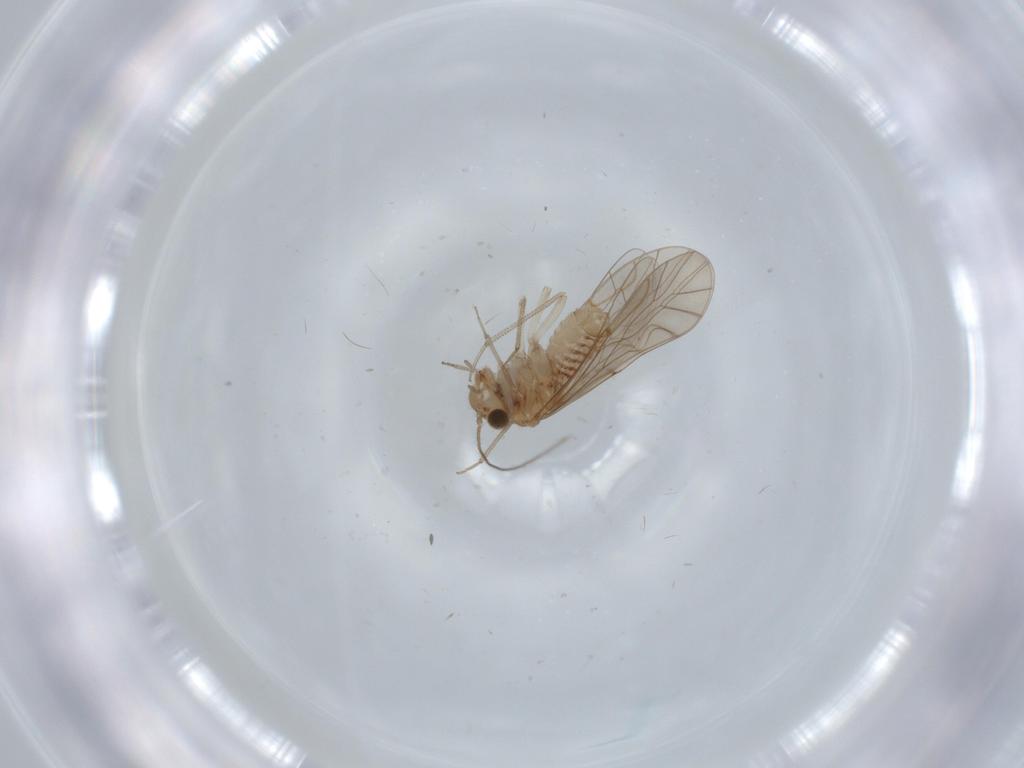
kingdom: Animalia
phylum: Arthropoda
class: Insecta
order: Psocodea
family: Lachesillidae
